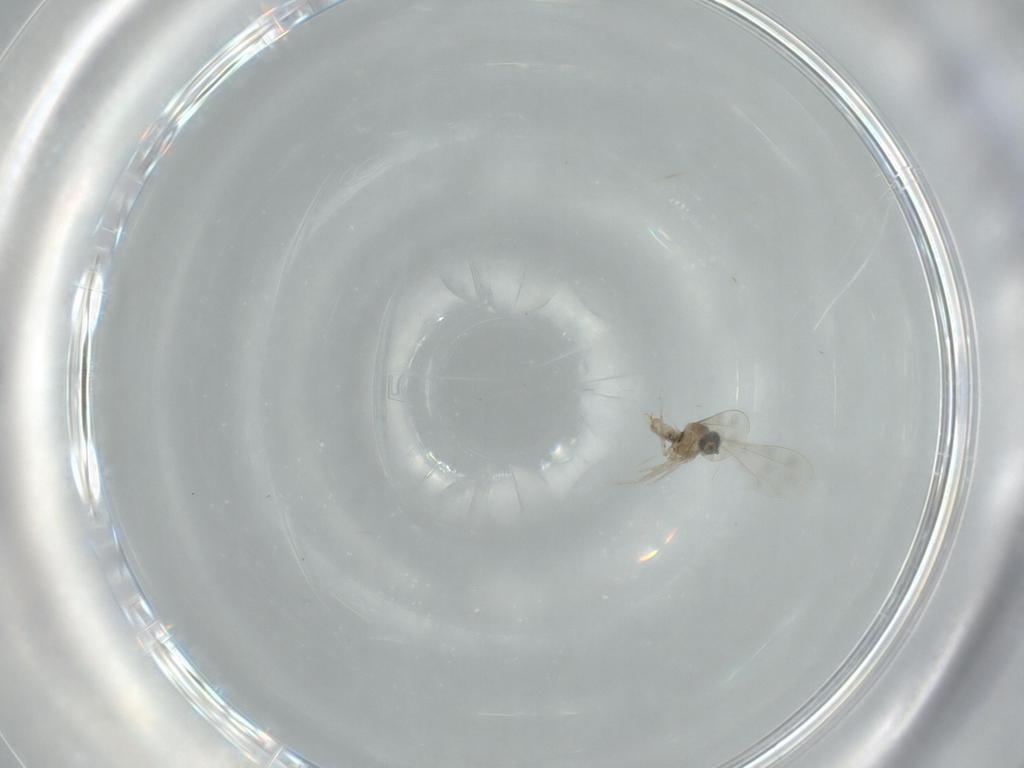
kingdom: Animalia
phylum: Arthropoda
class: Insecta
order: Diptera
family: Cecidomyiidae
